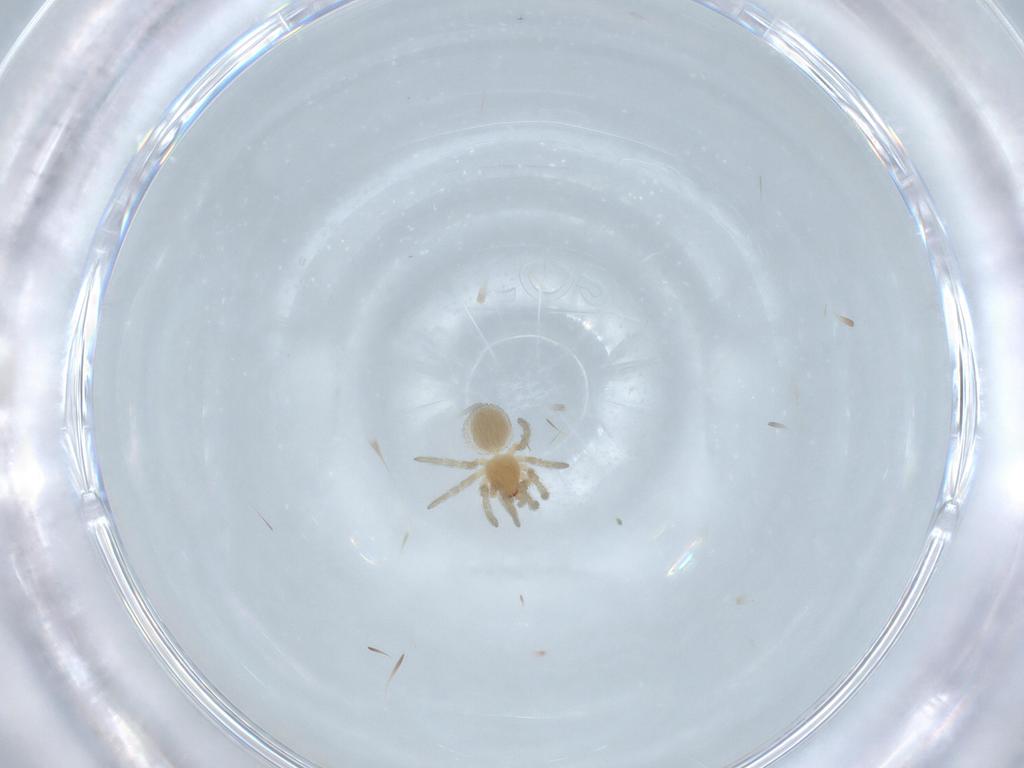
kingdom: Animalia
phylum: Arthropoda
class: Arachnida
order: Araneae
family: Dictynidae
